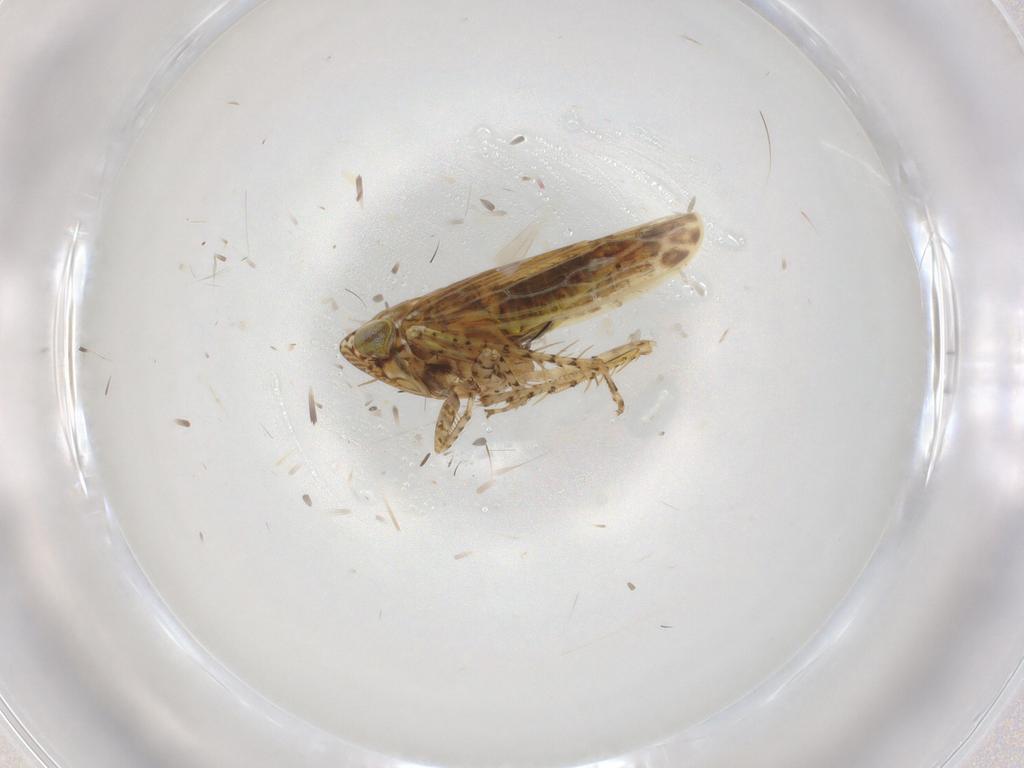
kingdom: Animalia
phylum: Arthropoda
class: Insecta
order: Hemiptera
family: Cicadellidae
